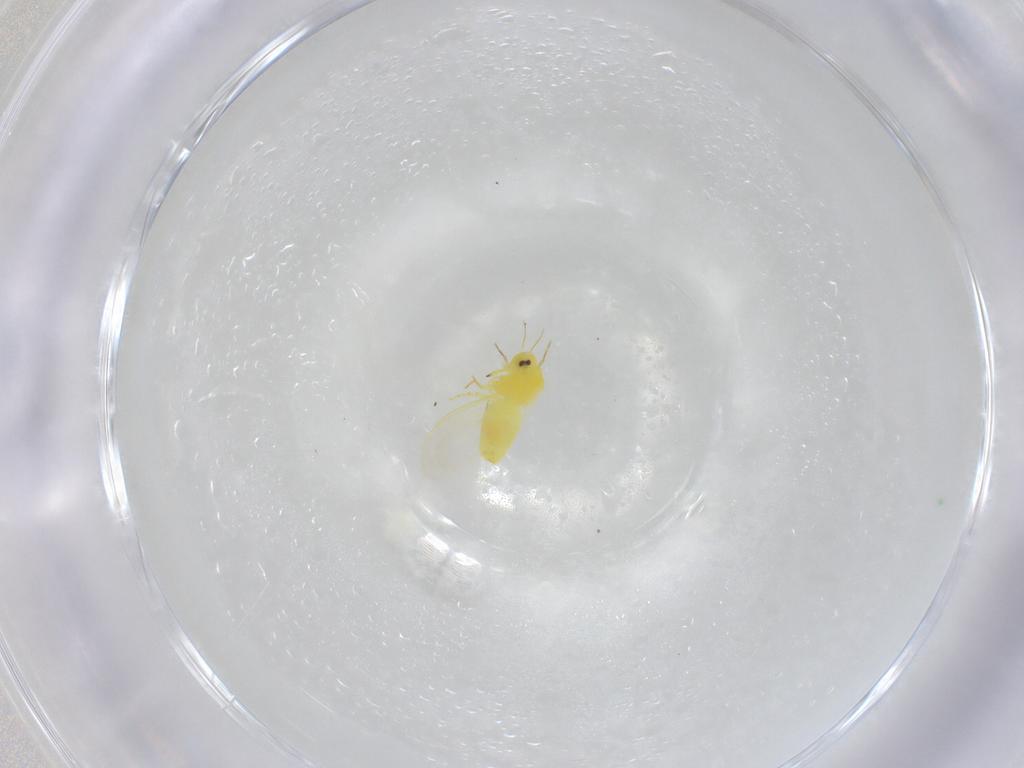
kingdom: Animalia
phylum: Arthropoda
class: Insecta
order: Hemiptera
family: Aleyrodidae
